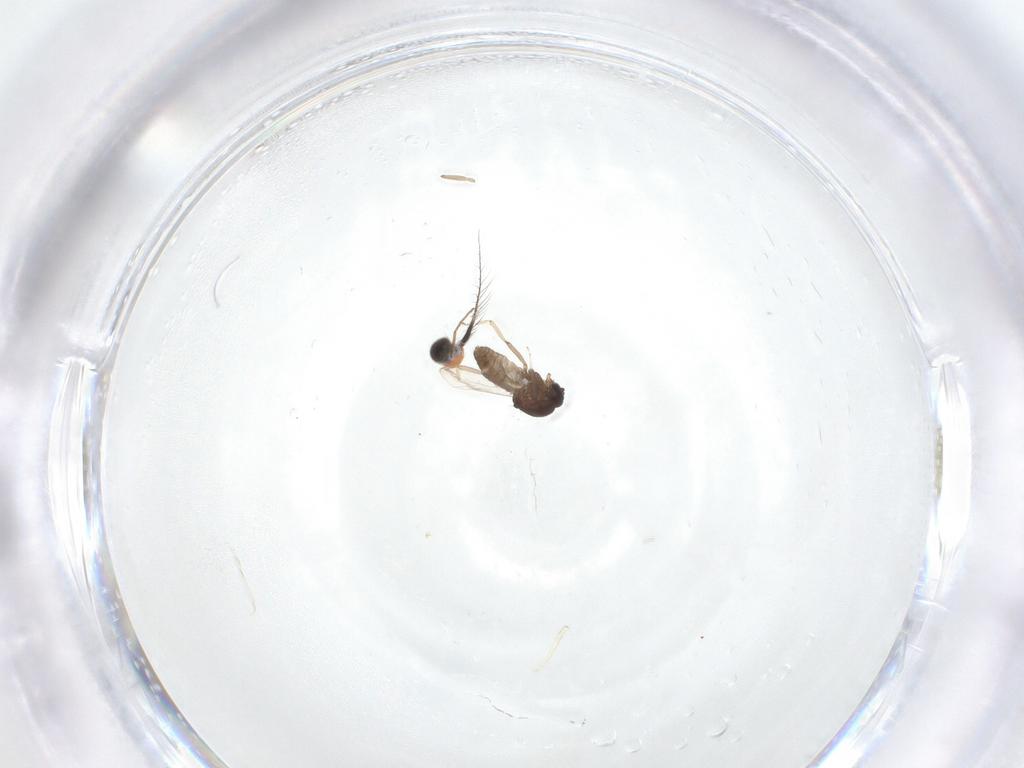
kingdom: Animalia
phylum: Arthropoda
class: Insecta
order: Diptera
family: Ceratopogonidae
